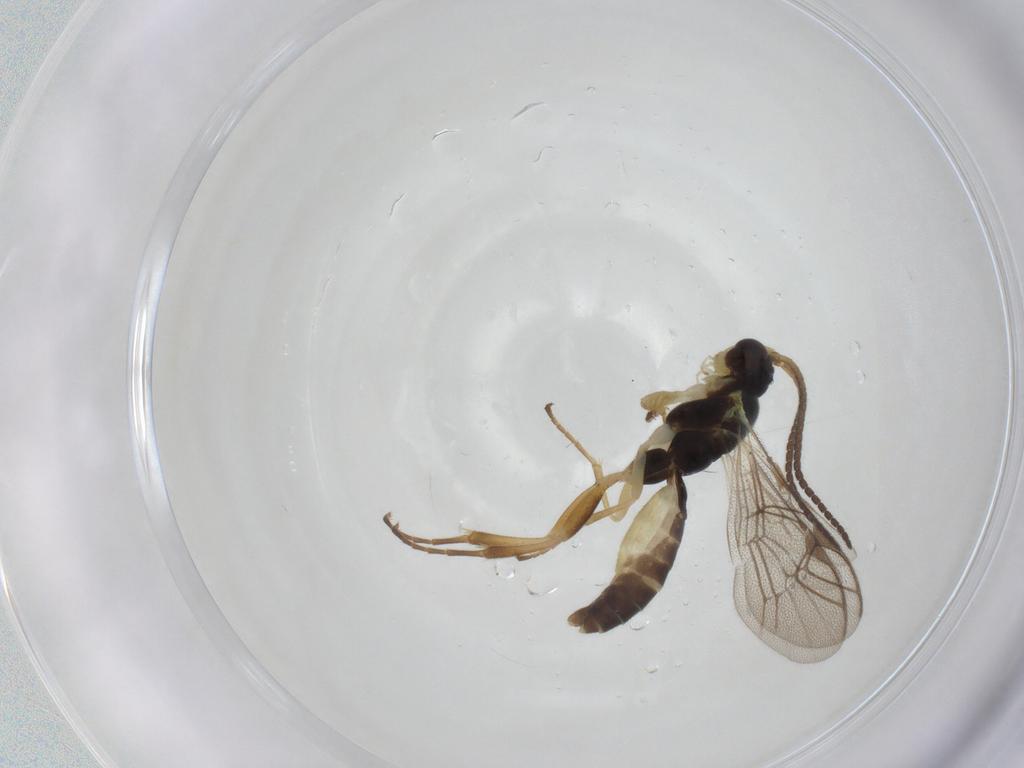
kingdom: Animalia
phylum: Arthropoda
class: Insecta
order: Hymenoptera
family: Ichneumonidae
